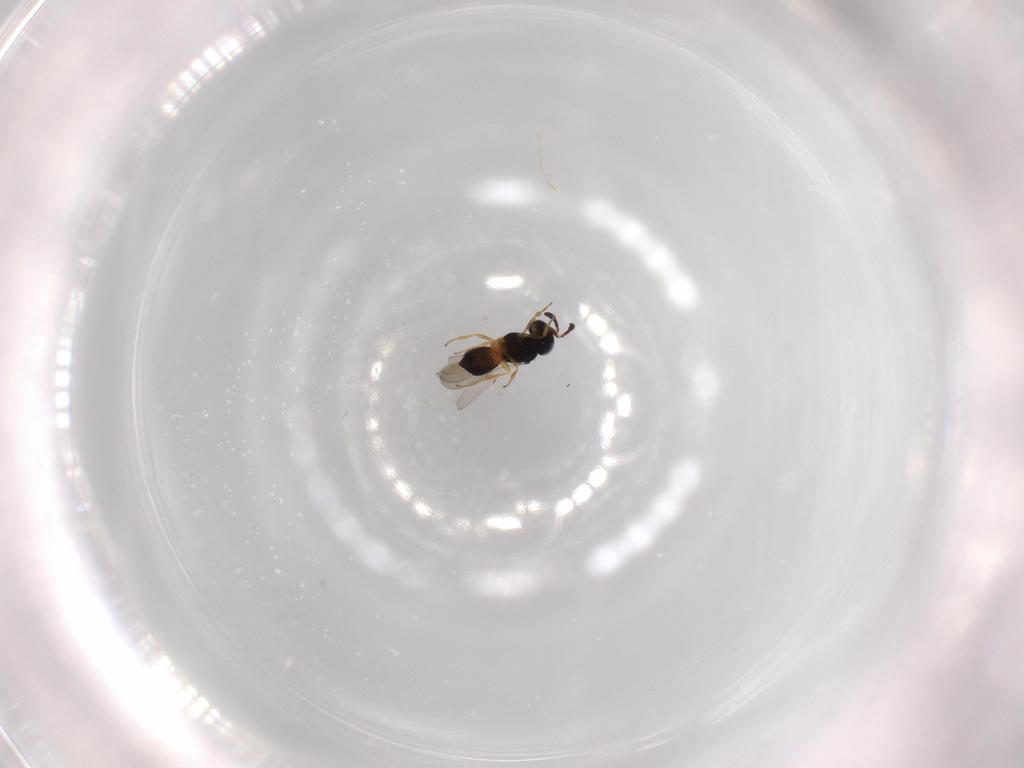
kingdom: Animalia
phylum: Arthropoda
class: Insecta
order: Hymenoptera
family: Scelionidae
